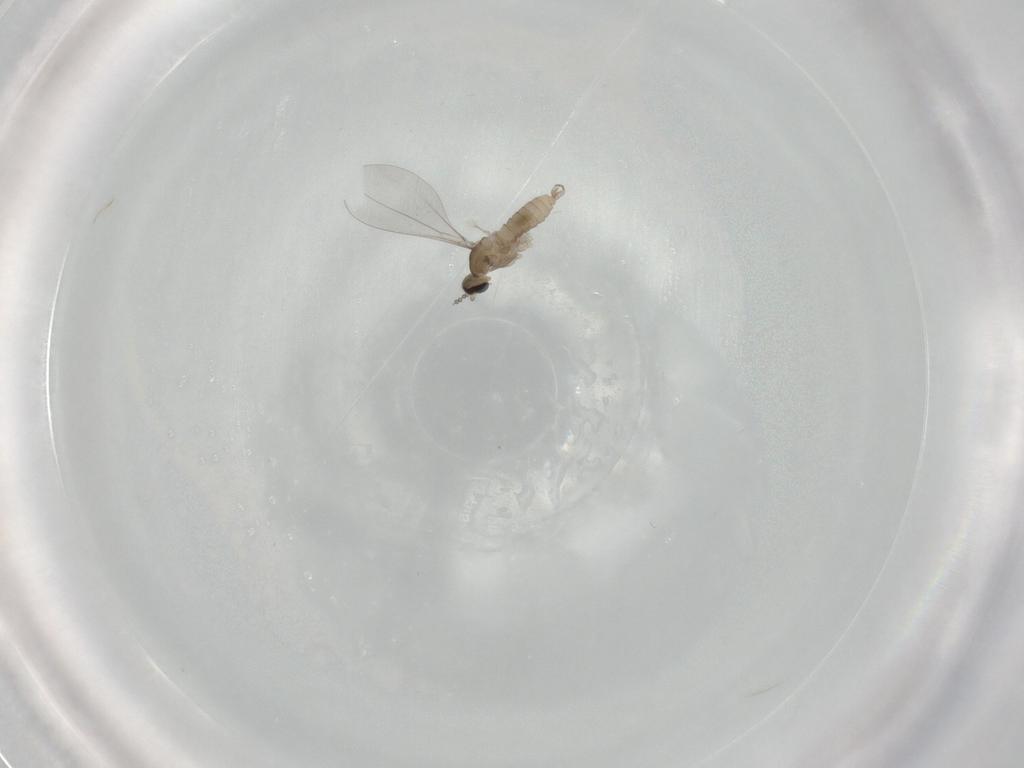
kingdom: Animalia
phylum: Arthropoda
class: Insecta
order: Diptera
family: Cecidomyiidae
